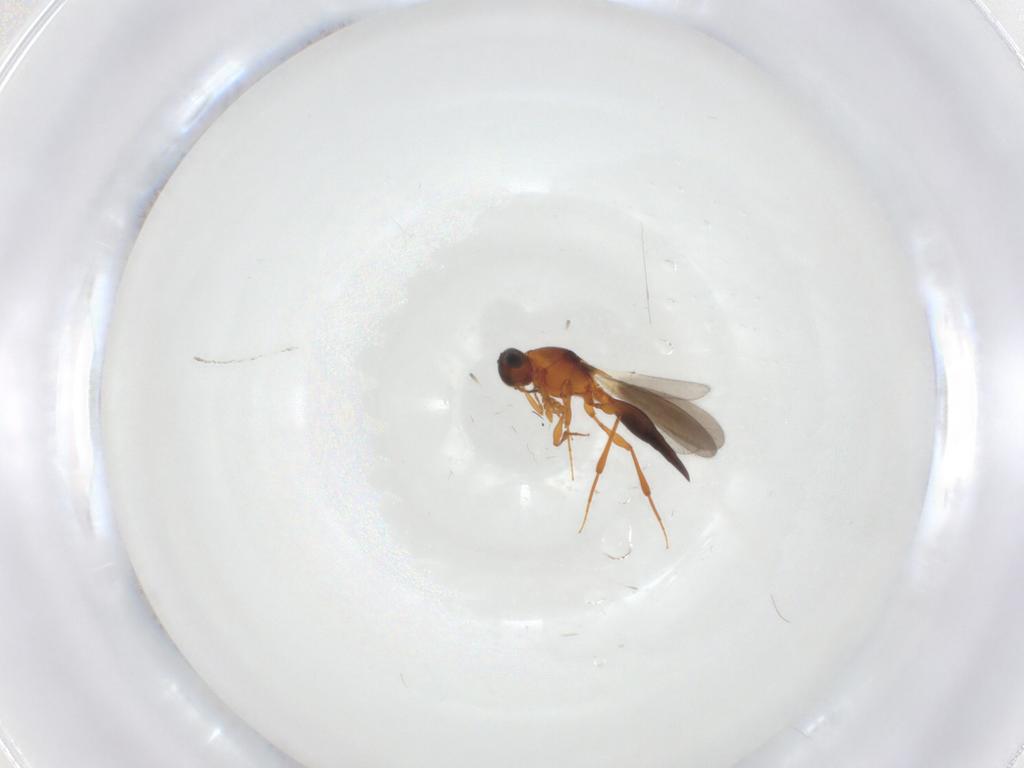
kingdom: Animalia
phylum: Arthropoda
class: Insecta
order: Hymenoptera
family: Platygastridae
